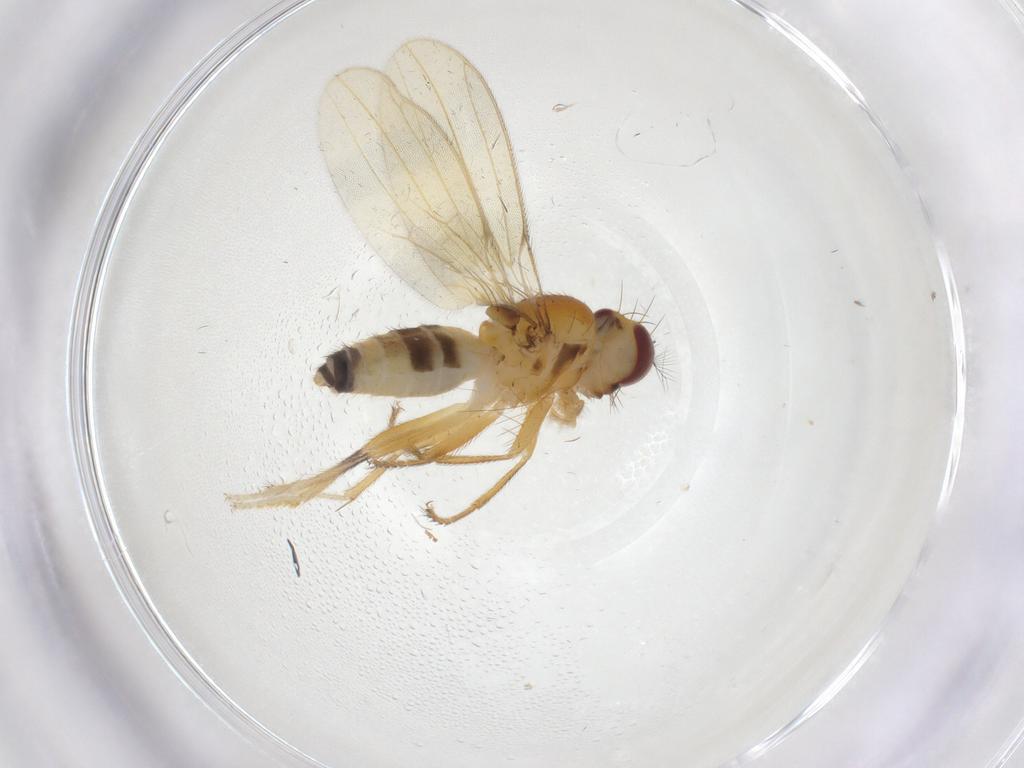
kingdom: Animalia
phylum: Arthropoda
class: Insecta
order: Diptera
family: Periscelididae
